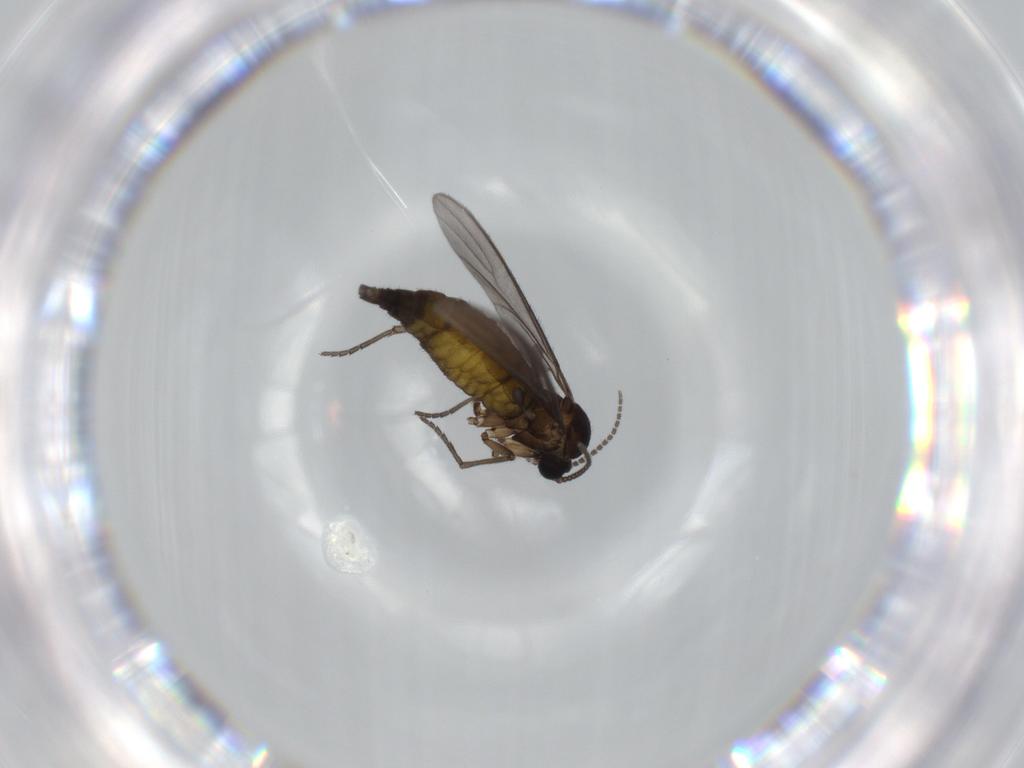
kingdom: Animalia
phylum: Arthropoda
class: Insecta
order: Diptera
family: Sciaridae
